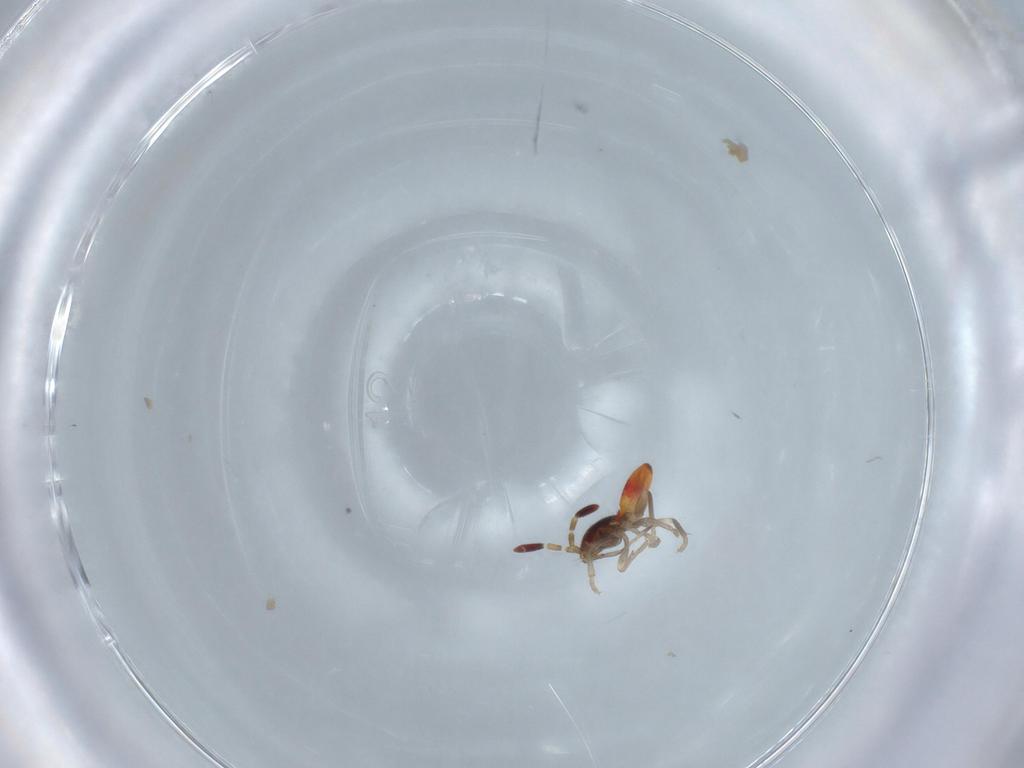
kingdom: Animalia
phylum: Arthropoda
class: Insecta
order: Hemiptera
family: Rhyparochromidae
